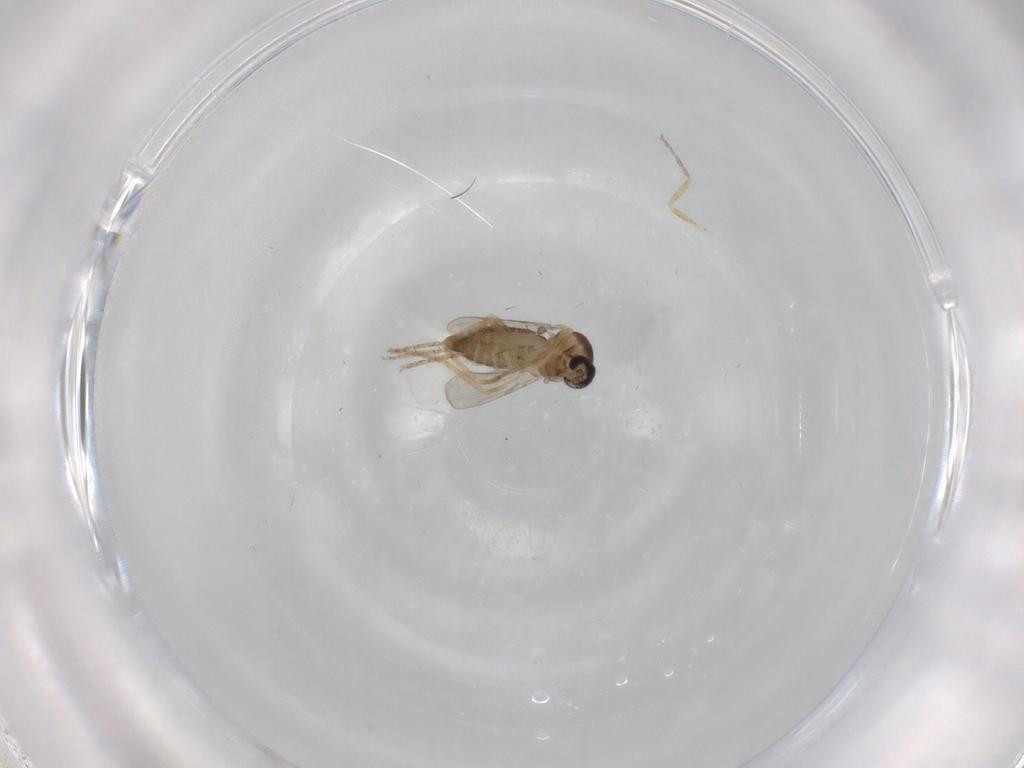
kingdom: Animalia
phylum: Arthropoda
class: Insecta
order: Diptera
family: Ceratopogonidae
